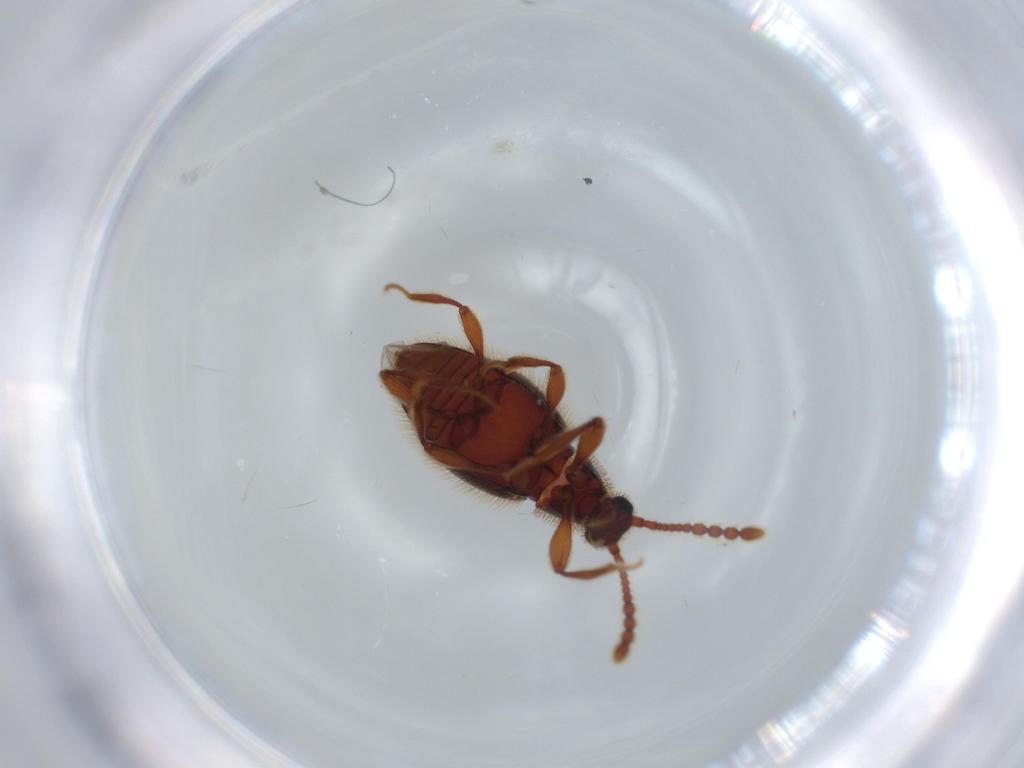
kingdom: Animalia
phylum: Arthropoda
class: Insecta
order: Coleoptera
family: Staphylinidae
